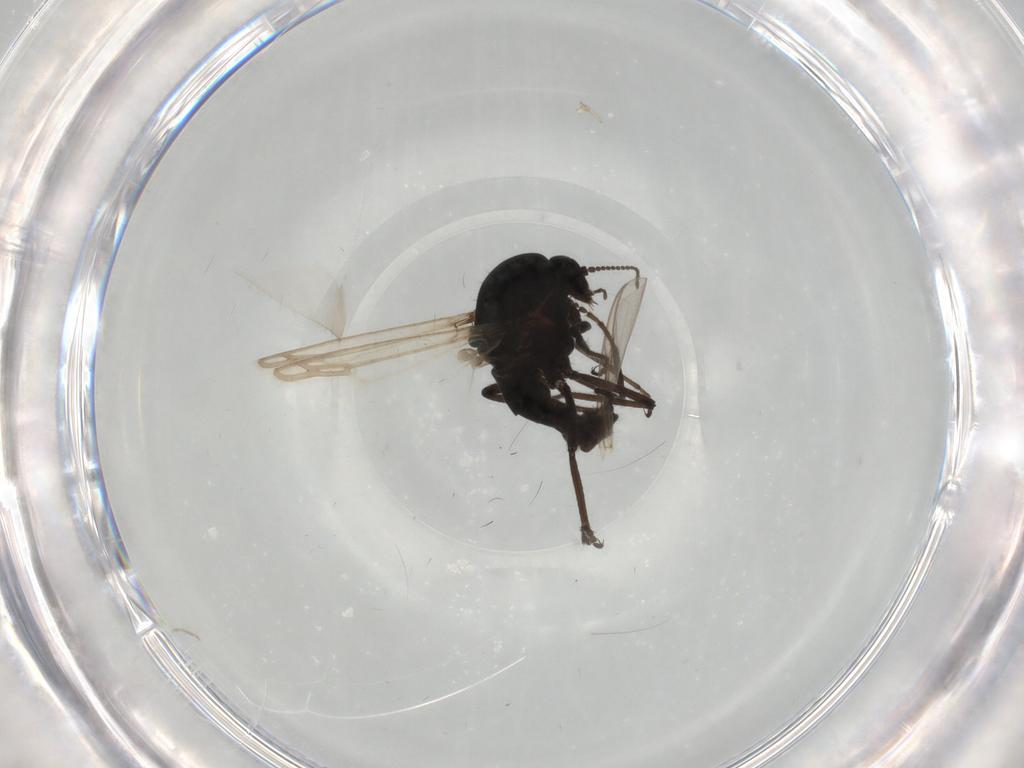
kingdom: Animalia
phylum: Arthropoda
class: Insecta
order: Diptera
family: Ceratopogonidae
